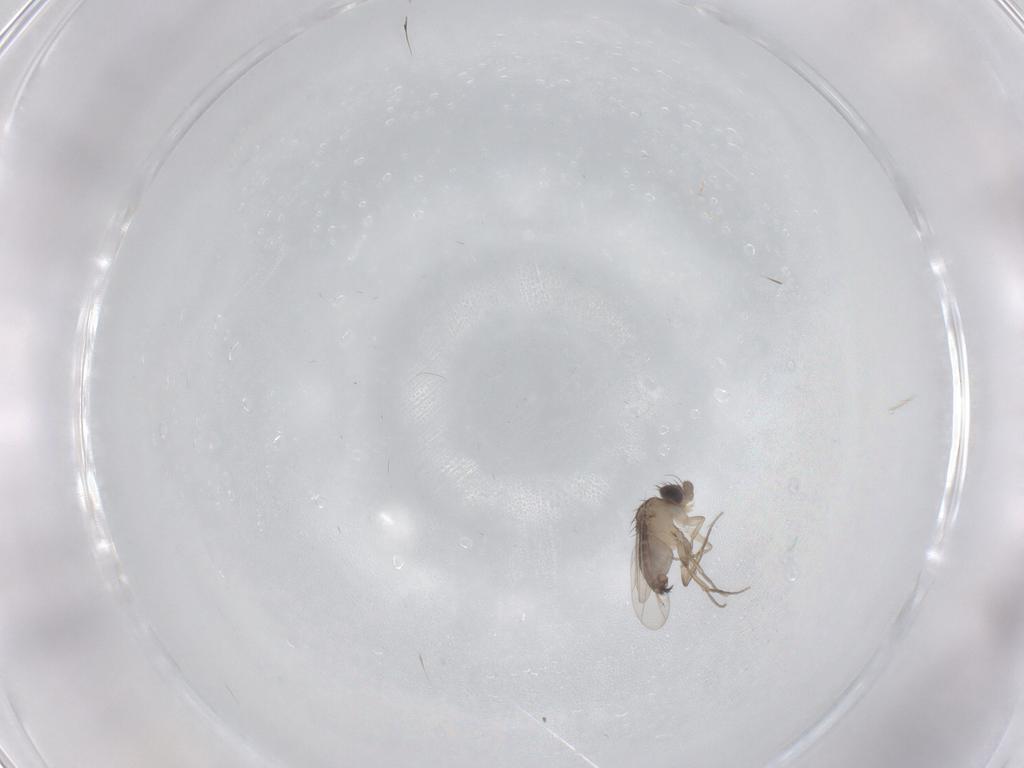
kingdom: Animalia
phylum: Arthropoda
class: Insecta
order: Diptera
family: Phoridae
